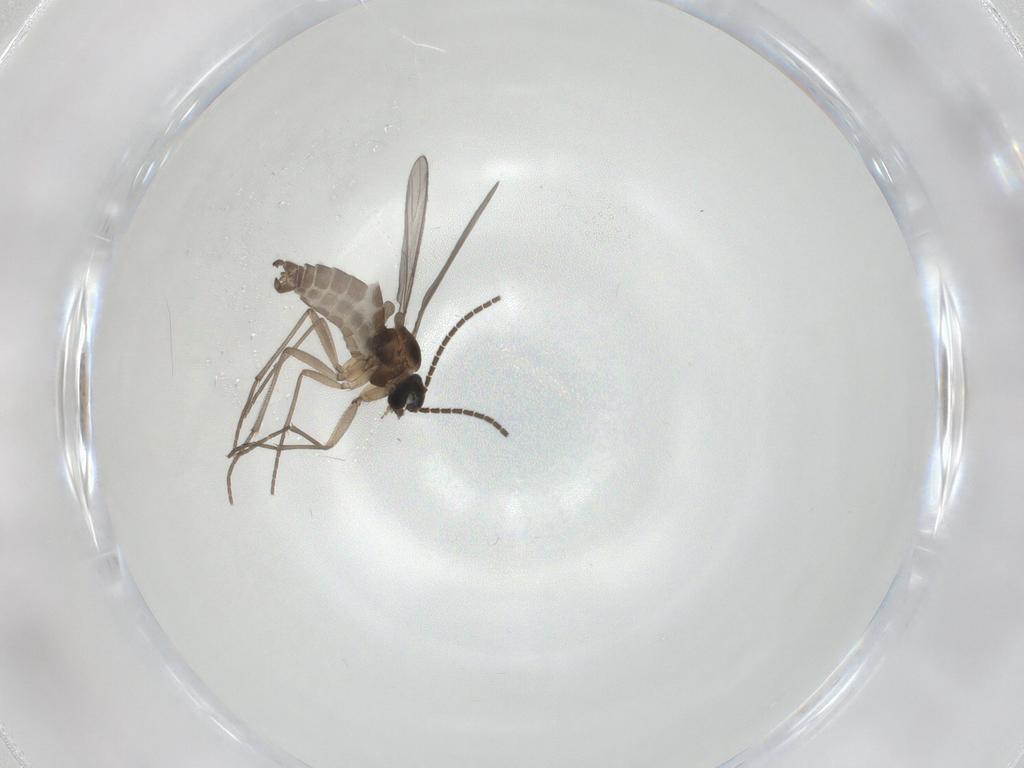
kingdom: Animalia
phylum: Arthropoda
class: Insecta
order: Diptera
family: Sciaridae
